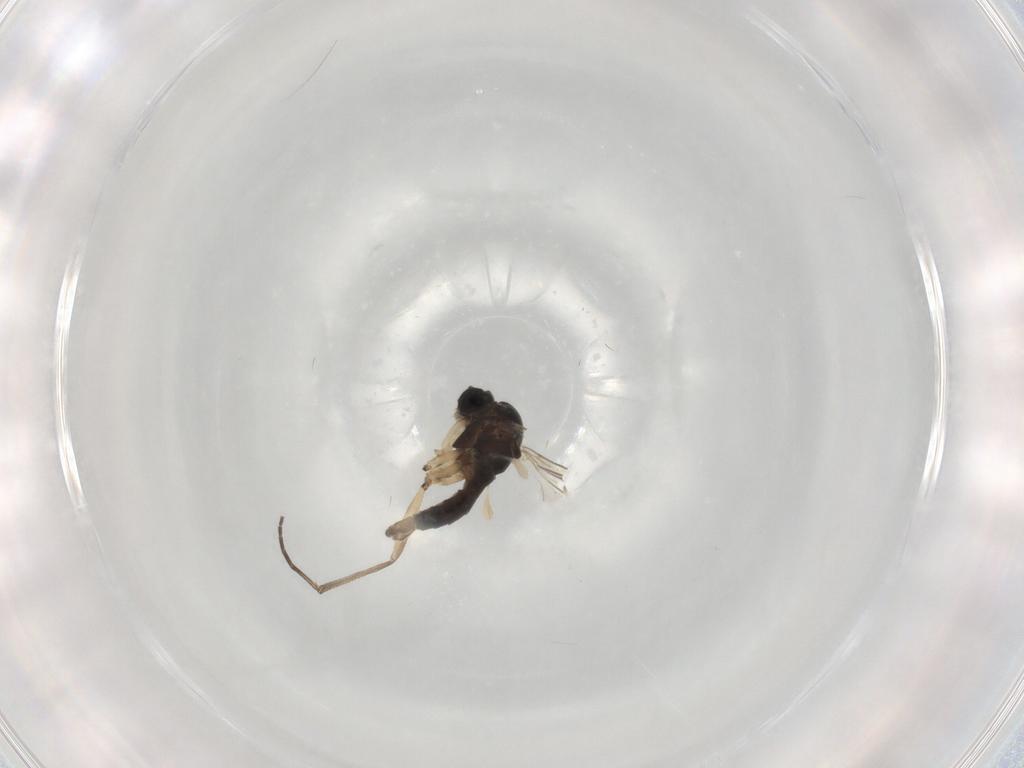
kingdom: Animalia
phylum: Arthropoda
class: Insecta
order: Diptera
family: Sciaridae
